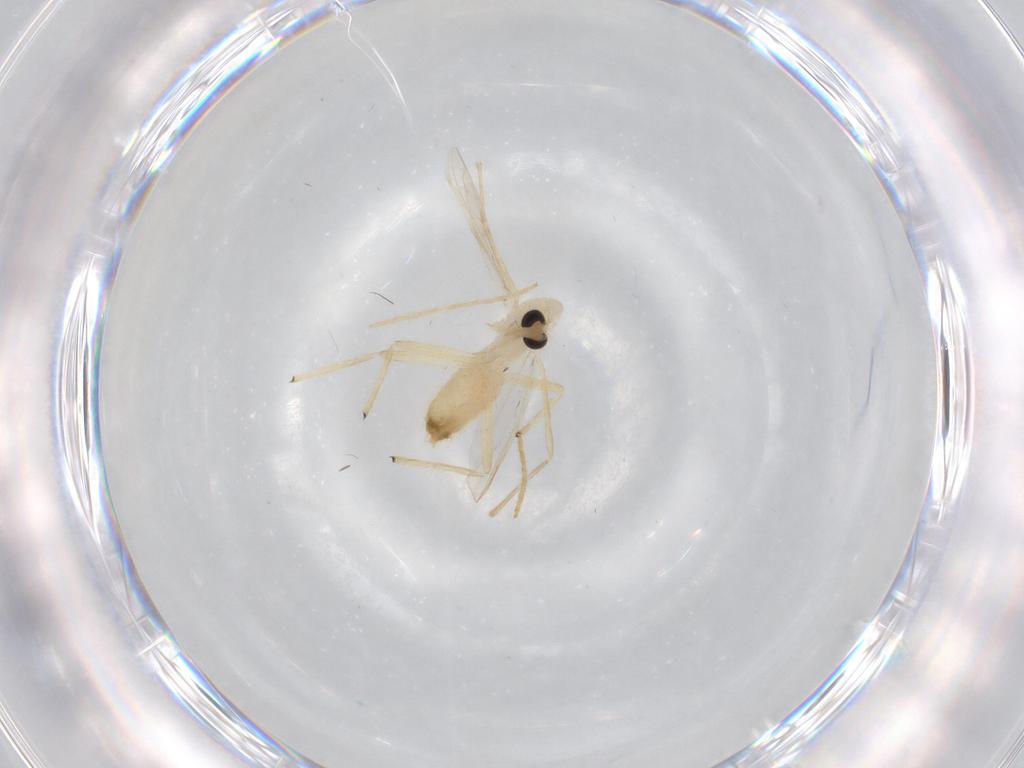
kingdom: Animalia
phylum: Arthropoda
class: Insecta
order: Diptera
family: Chironomidae
